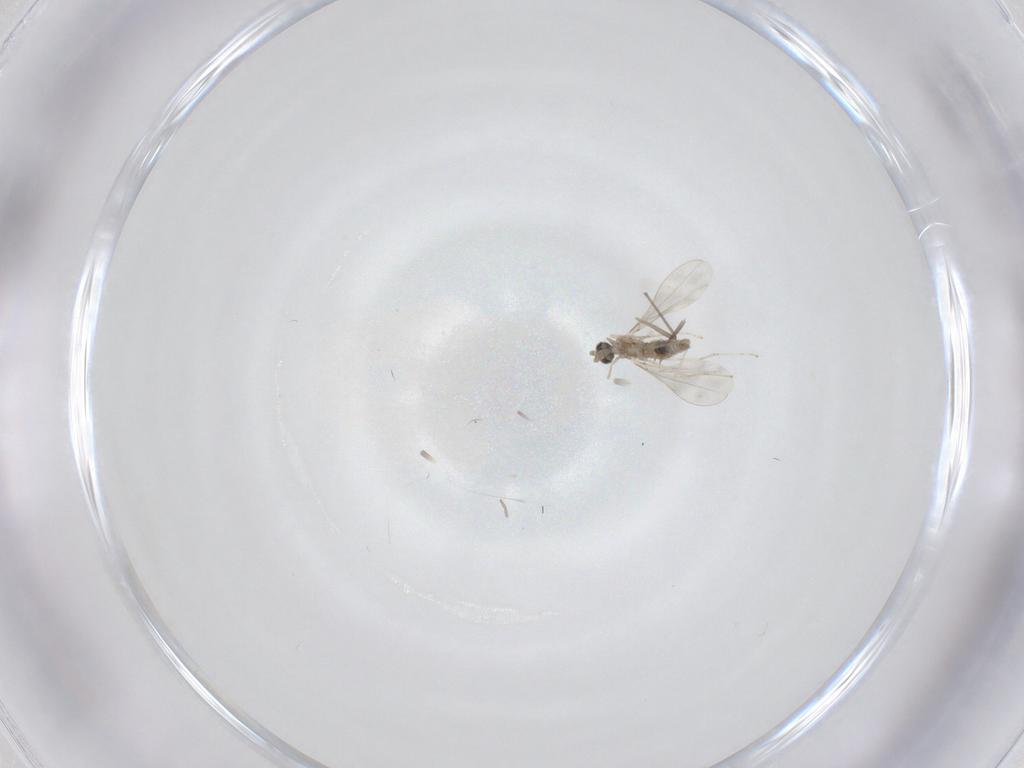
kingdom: Animalia
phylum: Arthropoda
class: Insecta
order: Diptera
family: Cecidomyiidae
